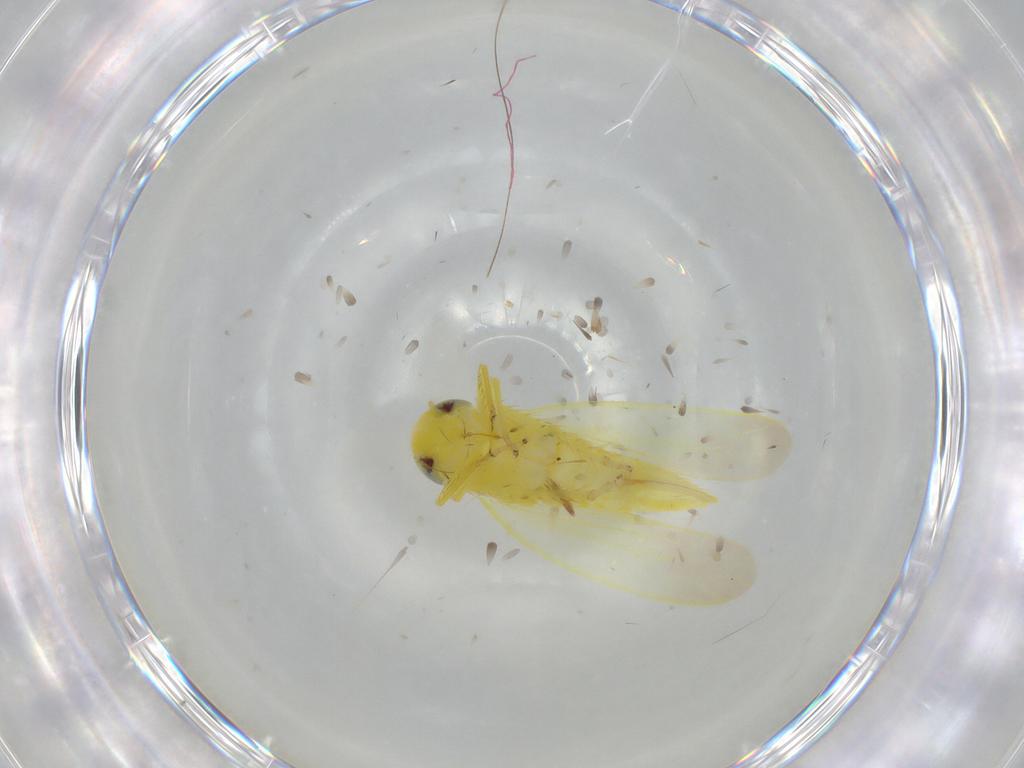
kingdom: Animalia
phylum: Arthropoda
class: Insecta
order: Hemiptera
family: Cicadellidae
